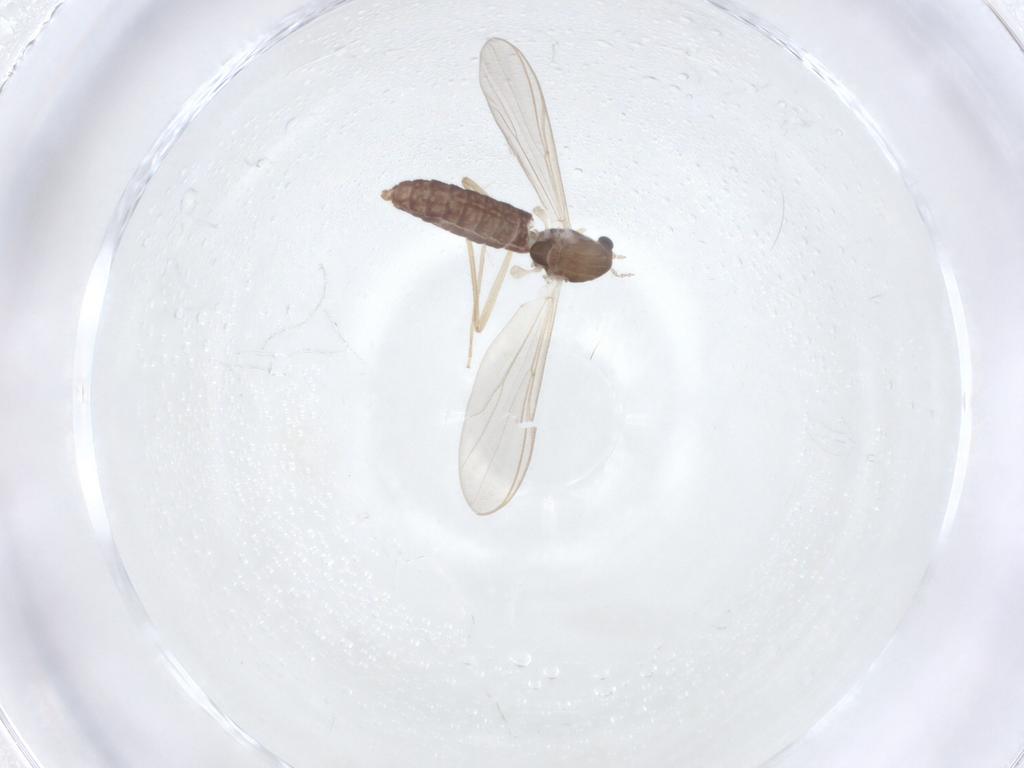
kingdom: Animalia
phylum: Arthropoda
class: Insecta
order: Diptera
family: Chironomidae
